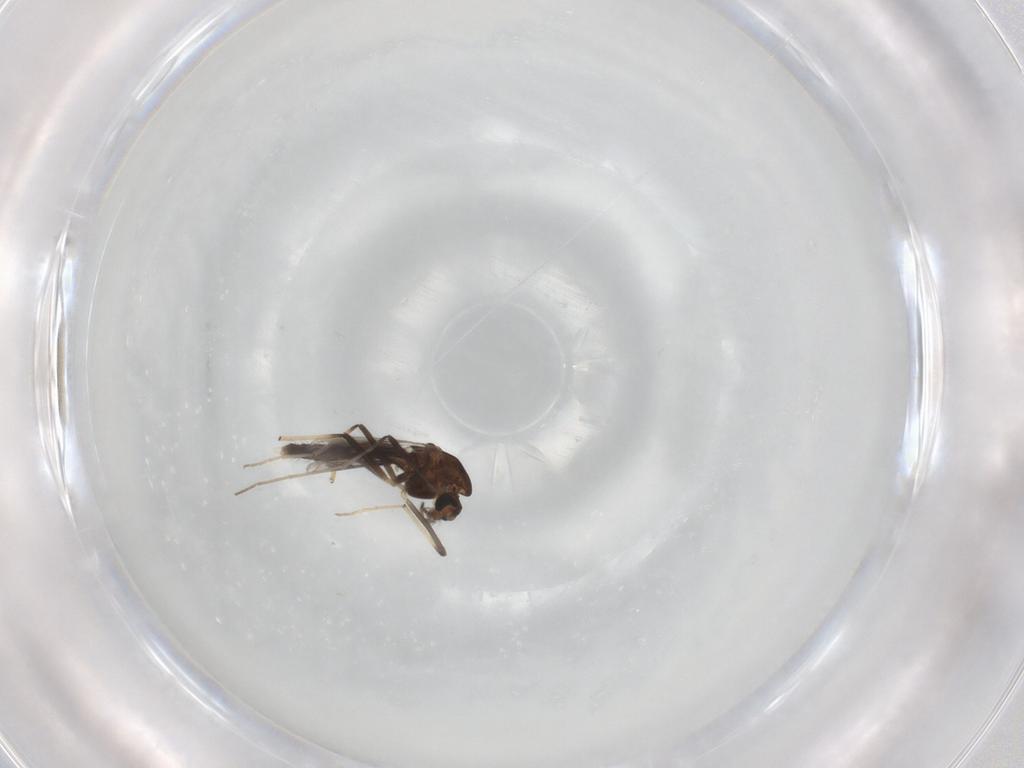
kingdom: Animalia
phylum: Arthropoda
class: Insecta
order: Diptera
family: Chironomidae
